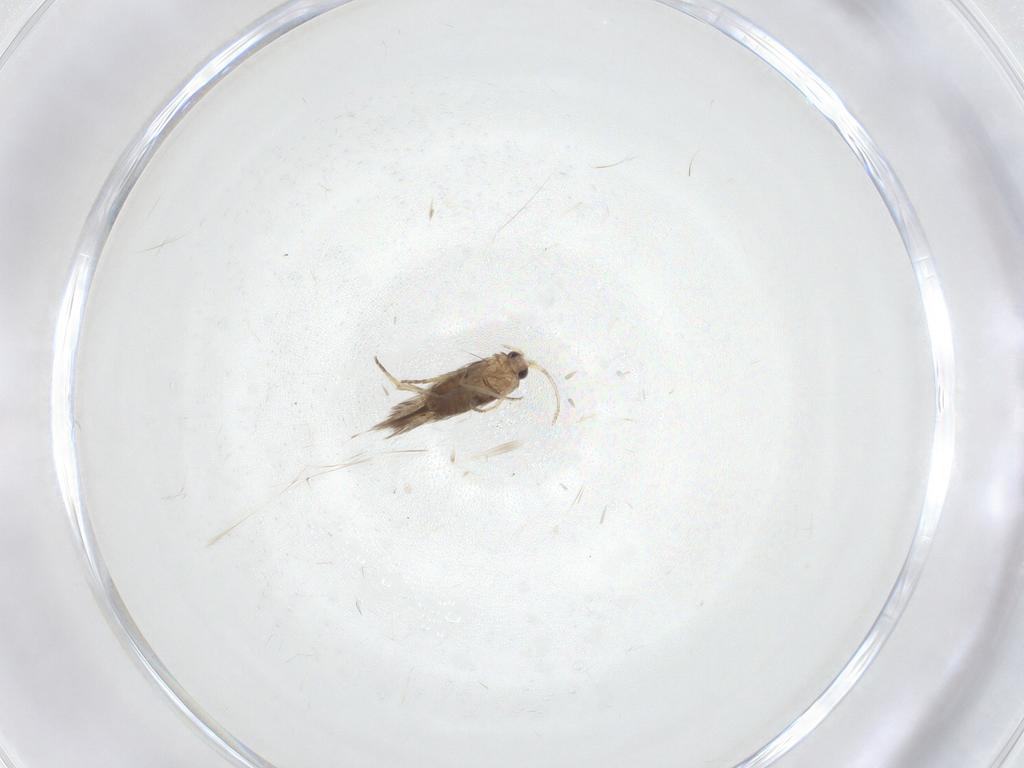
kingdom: Animalia
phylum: Arthropoda
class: Insecta
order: Lepidoptera
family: Nepticulidae
